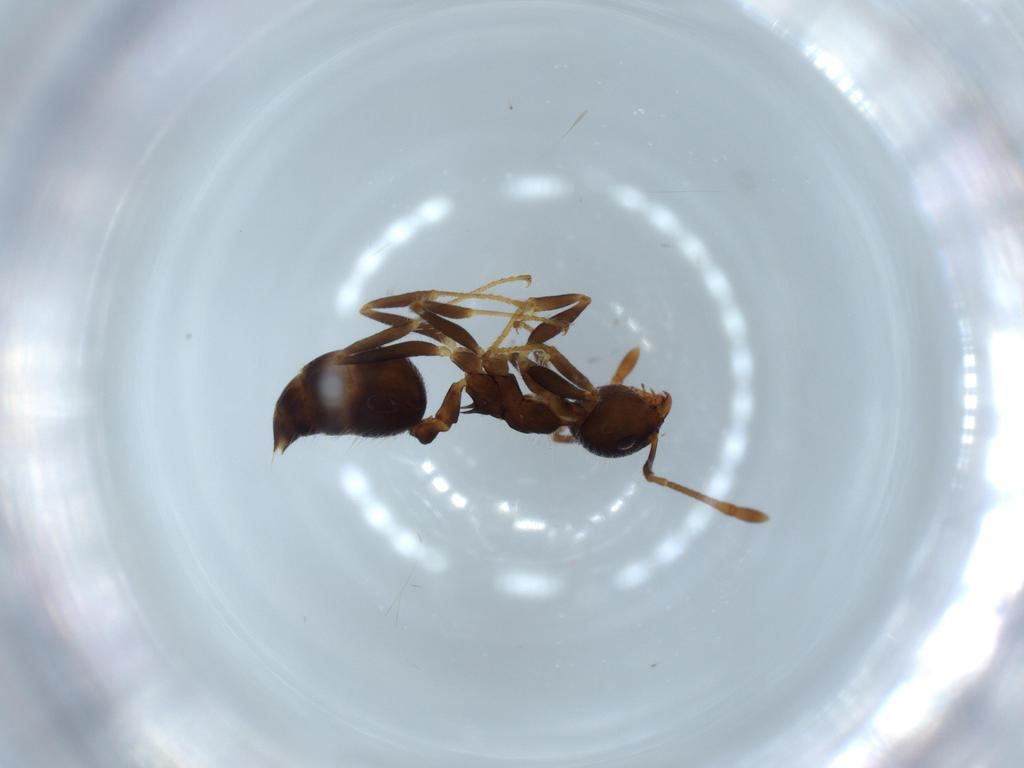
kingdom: Animalia
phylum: Arthropoda
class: Insecta
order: Hymenoptera
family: Formicidae
